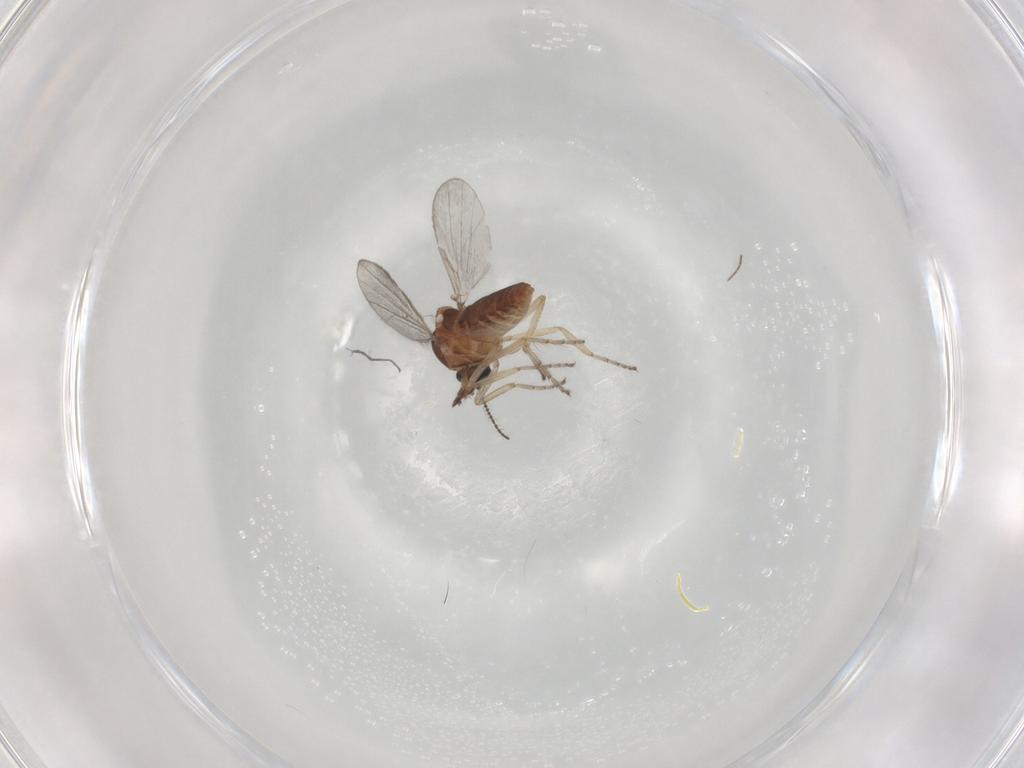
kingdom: Animalia
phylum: Arthropoda
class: Insecta
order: Diptera
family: Ceratopogonidae
